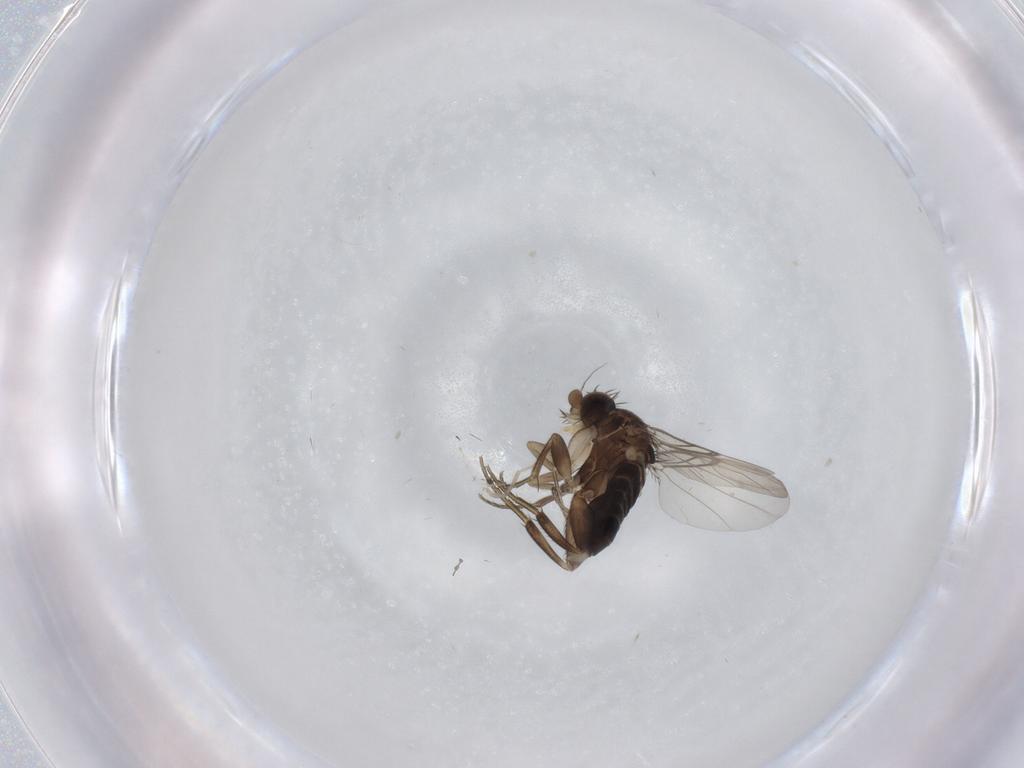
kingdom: Animalia
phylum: Arthropoda
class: Insecta
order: Diptera
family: Phoridae
